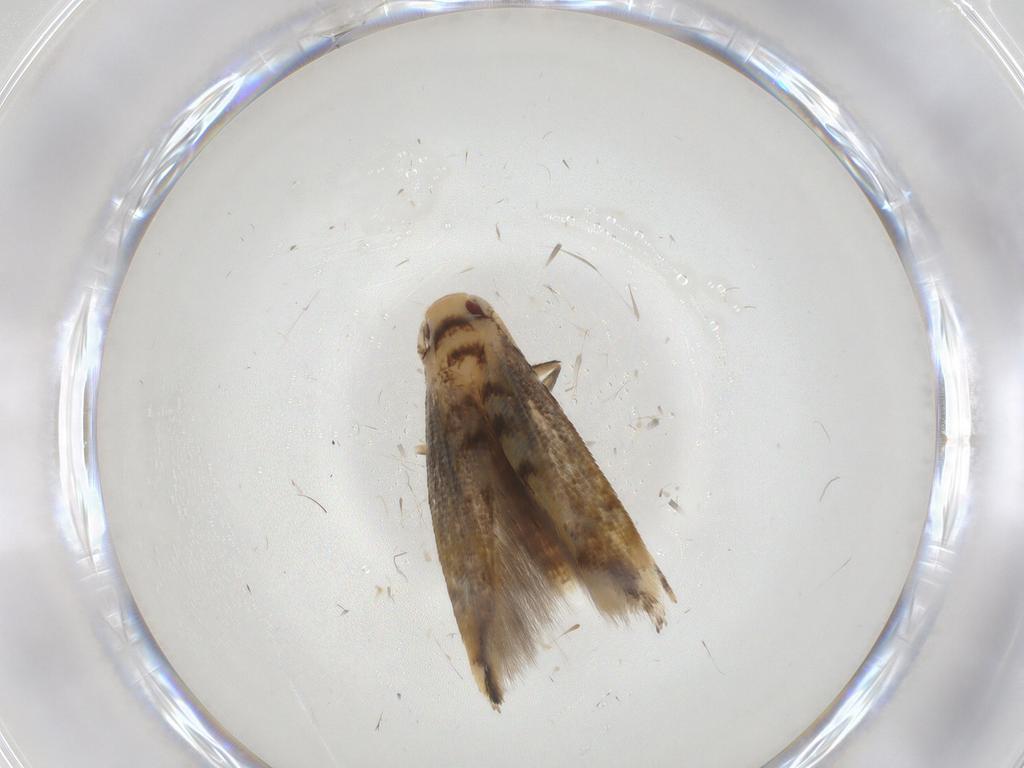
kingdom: Animalia
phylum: Arthropoda
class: Insecta
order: Lepidoptera
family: Momphidae
